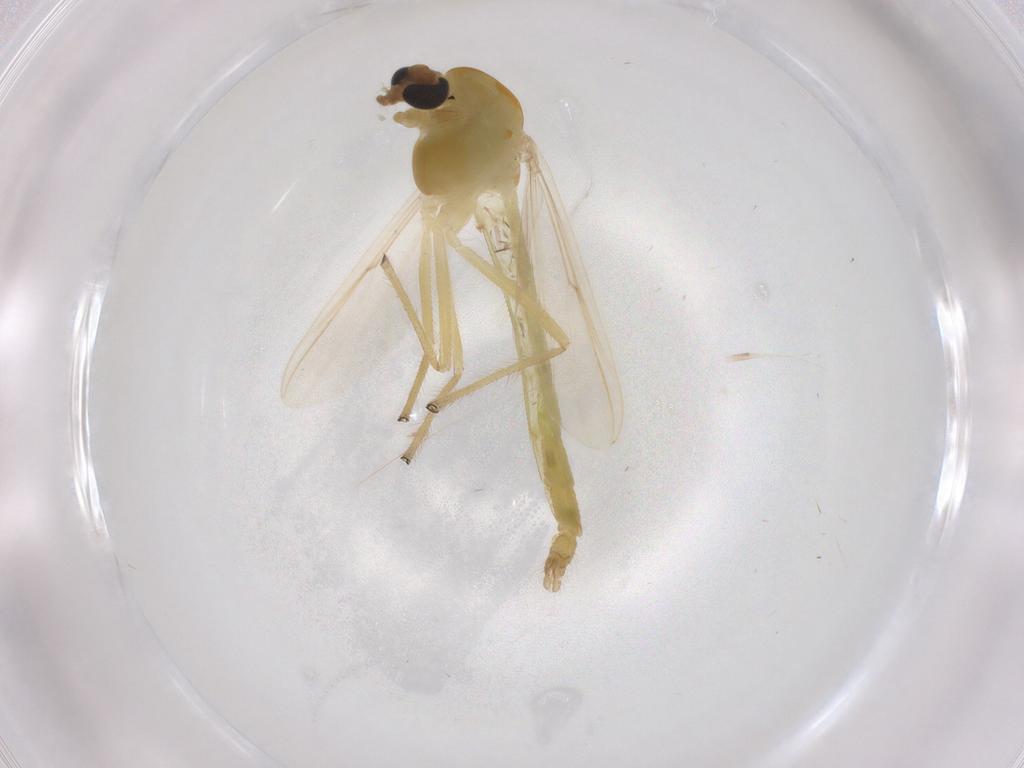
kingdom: Animalia
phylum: Arthropoda
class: Insecta
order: Diptera
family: Chironomidae
